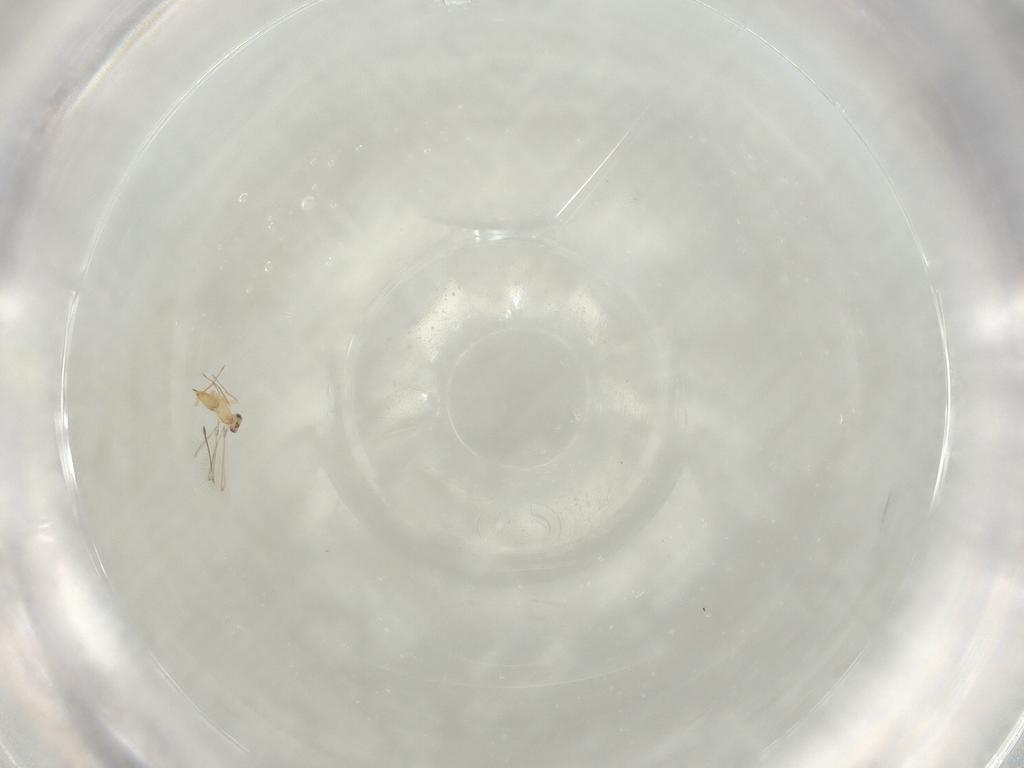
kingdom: Animalia
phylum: Arthropoda
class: Insecta
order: Hymenoptera
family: Mymaridae
